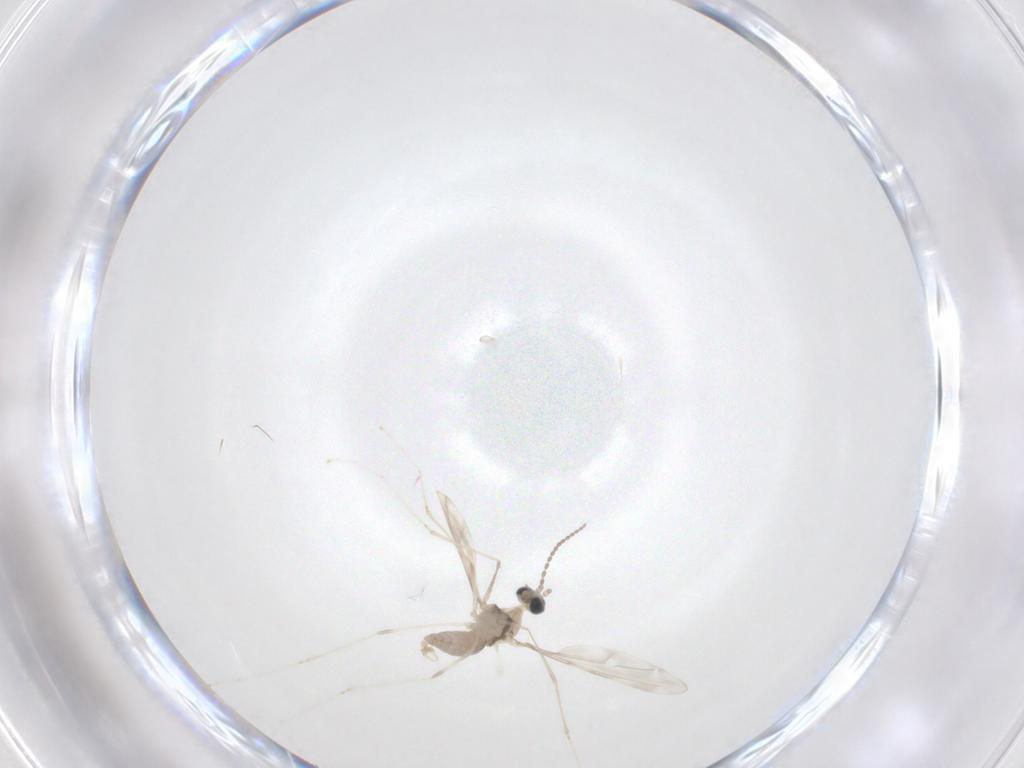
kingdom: Animalia
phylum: Arthropoda
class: Insecta
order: Diptera
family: Cecidomyiidae
